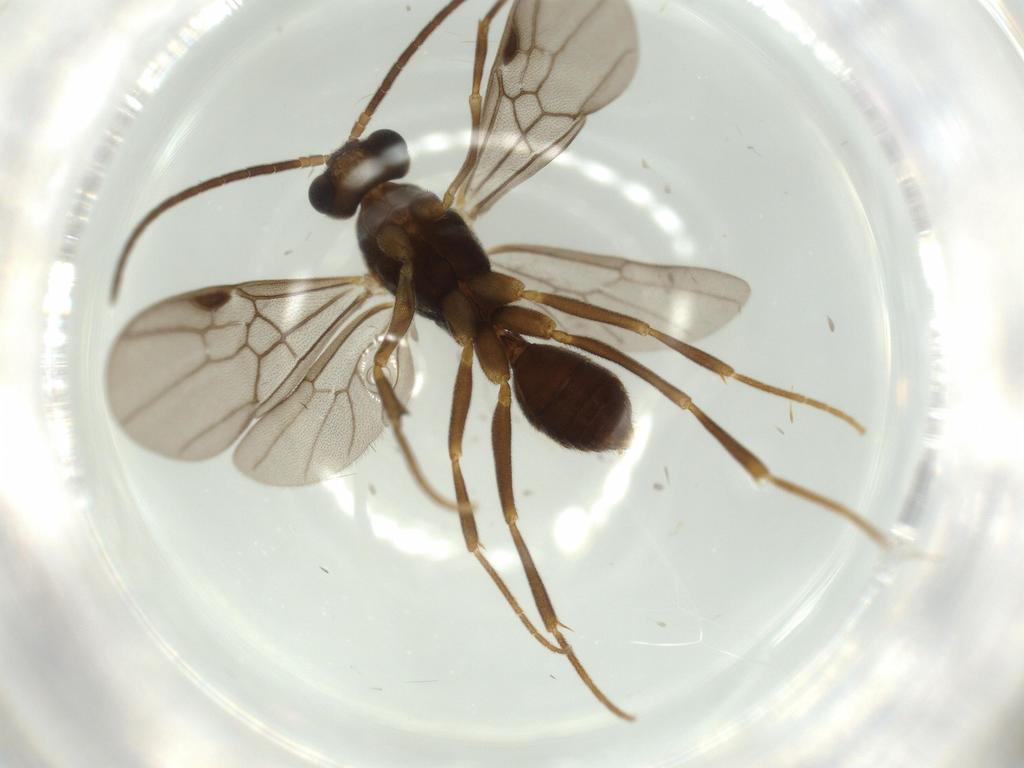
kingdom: Animalia
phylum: Arthropoda
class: Insecta
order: Hymenoptera
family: Formicidae
